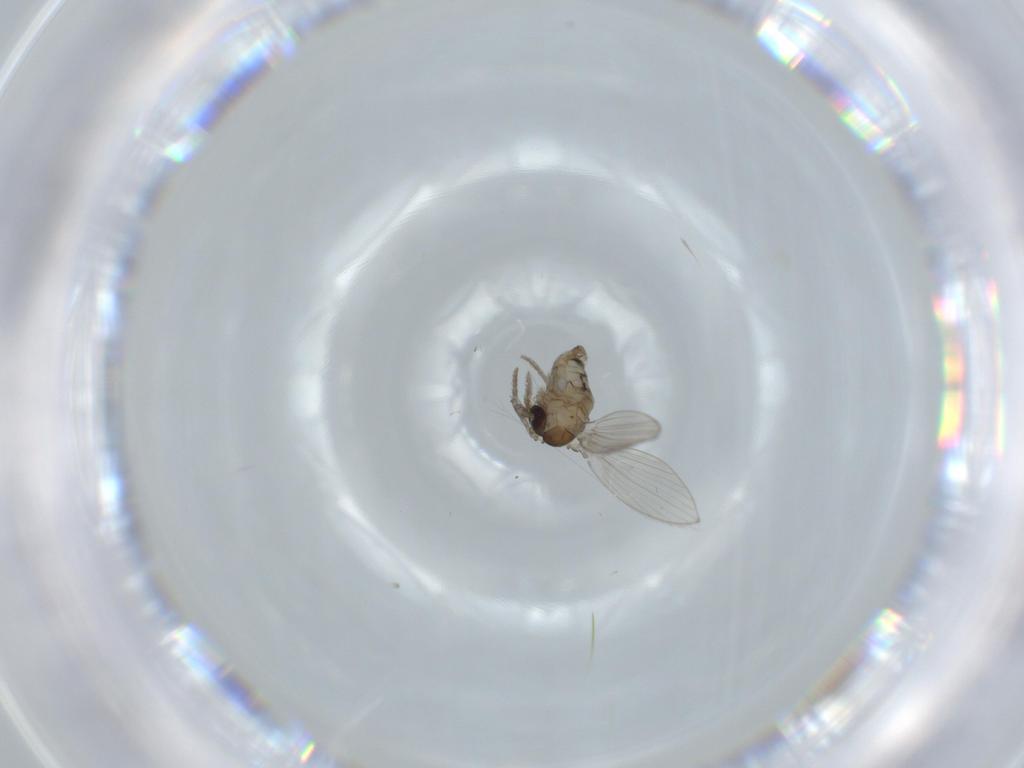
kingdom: Animalia
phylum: Arthropoda
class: Insecta
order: Diptera
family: Psychodidae
